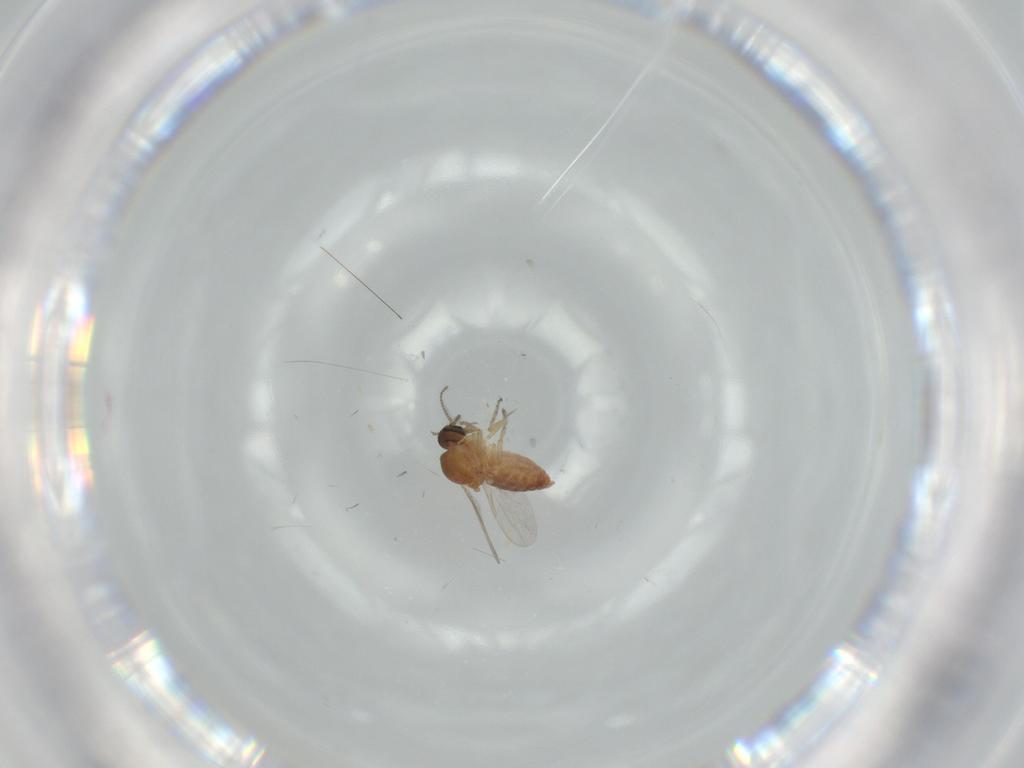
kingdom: Animalia
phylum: Arthropoda
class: Insecta
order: Diptera
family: Ceratopogonidae
